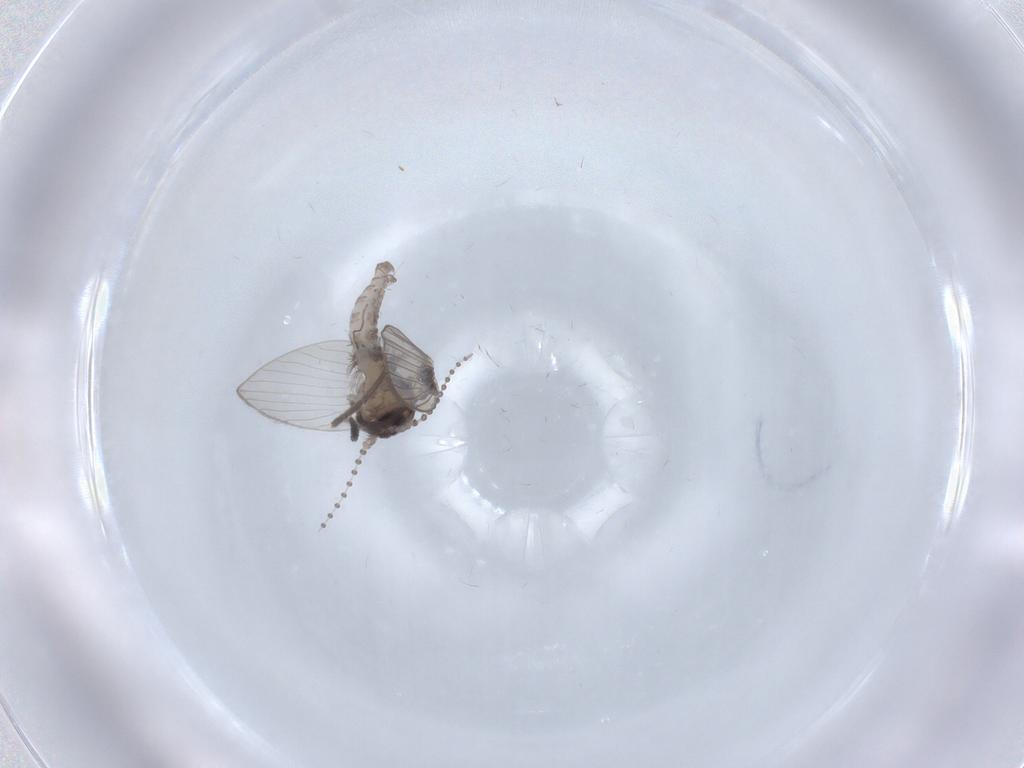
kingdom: Animalia
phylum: Arthropoda
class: Insecta
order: Diptera
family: Psychodidae
